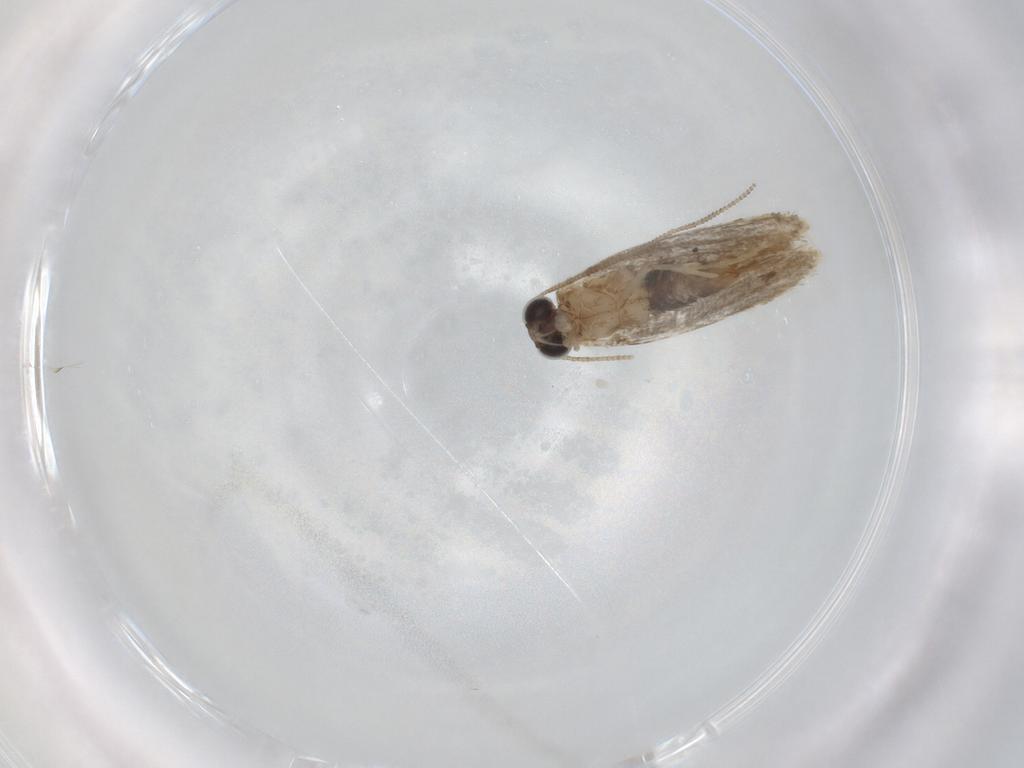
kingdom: Animalia
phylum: Arthropoda
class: Insecta
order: Lepidoptera
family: Tineidae
